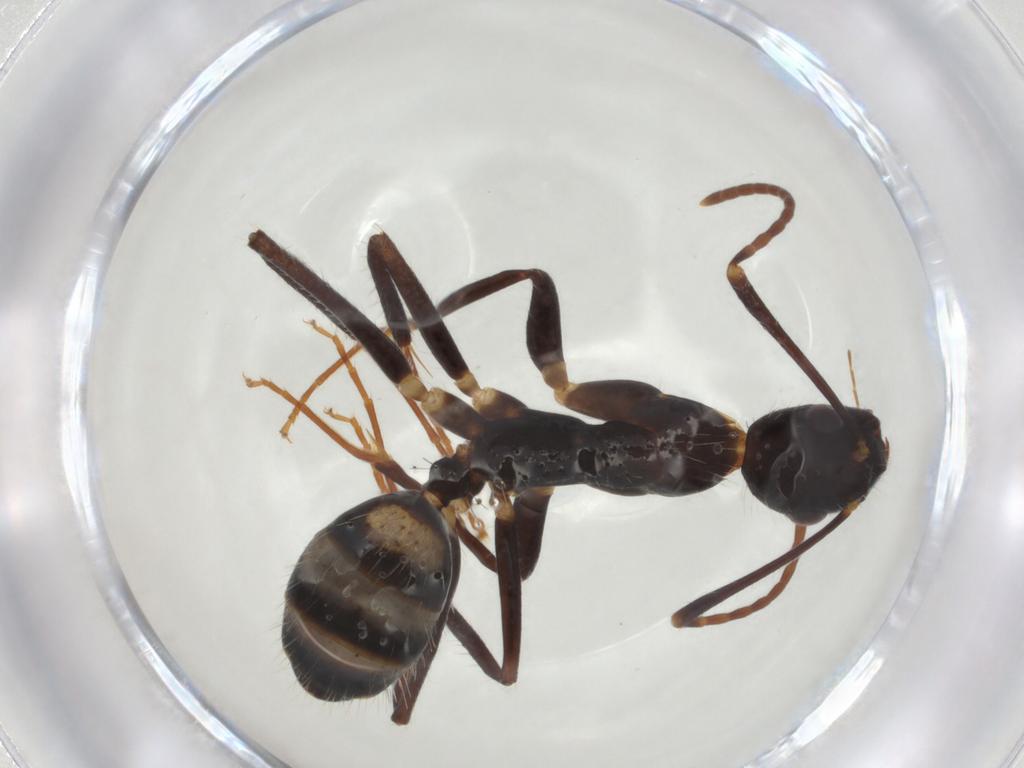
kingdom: Animalia
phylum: Arthropoda
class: Insecta
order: Hymenoptera
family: Formicidae
